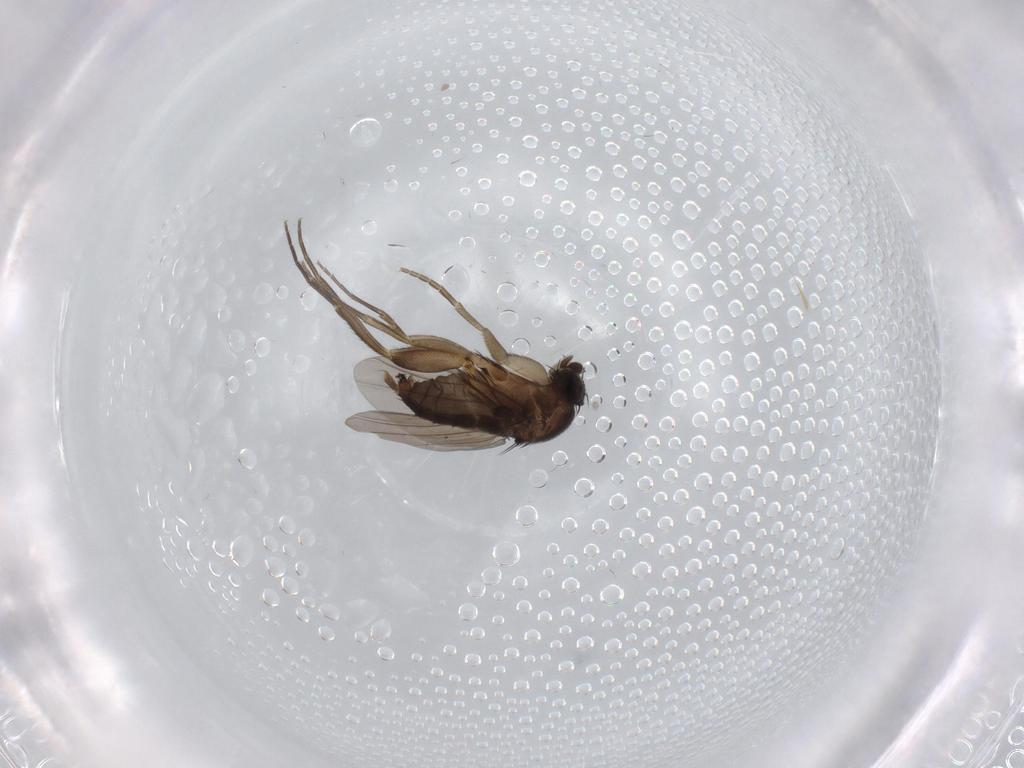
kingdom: Animalia
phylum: Arthropoda
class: Insecta
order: Diptera
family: Phoridae
